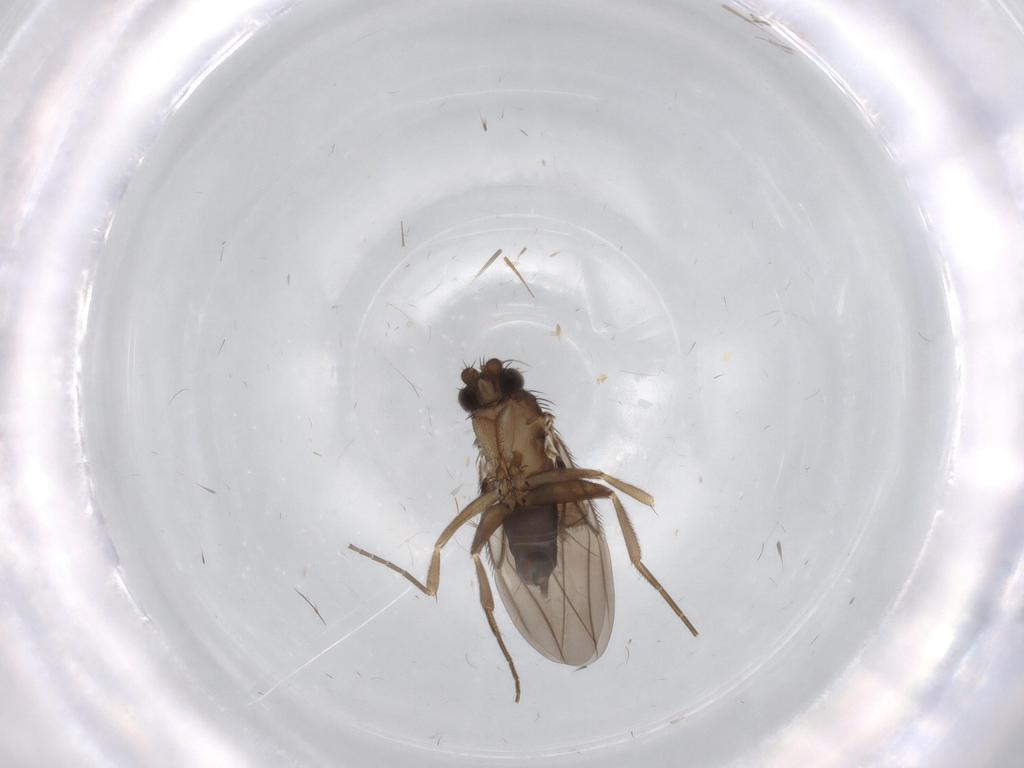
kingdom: Animalia
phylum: Arthropoda
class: Insecta
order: Diptera
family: Limoniidae
